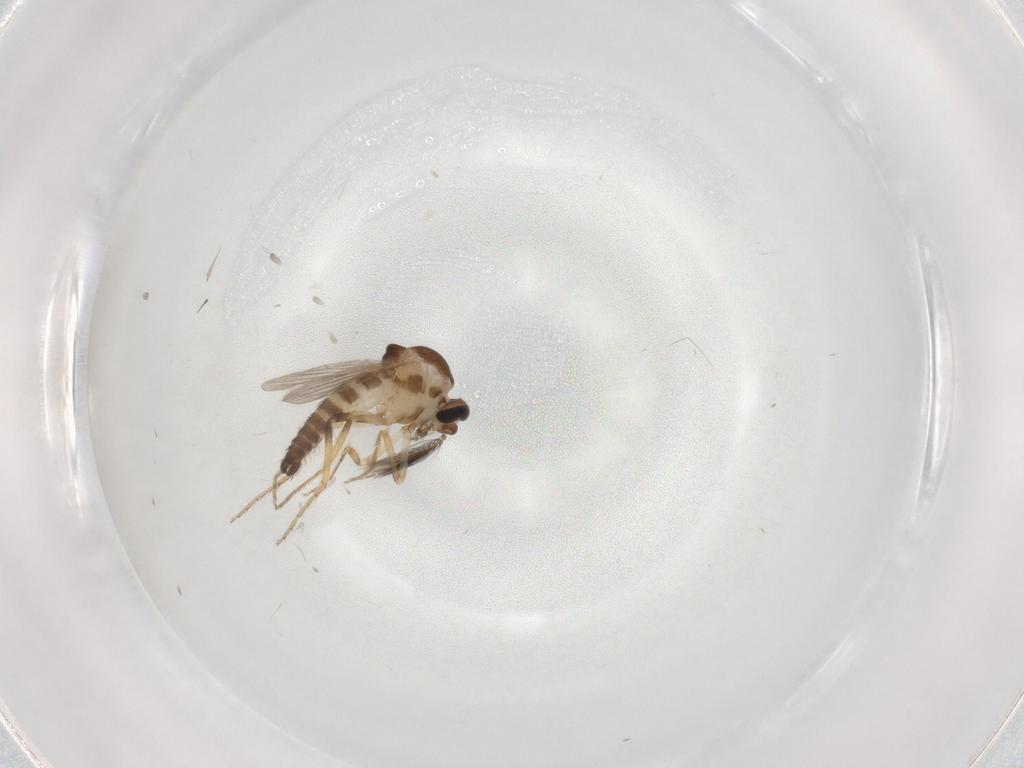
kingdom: Animalia
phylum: Arthropoda
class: Insecta
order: Diptera
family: Ceratopogonidae
